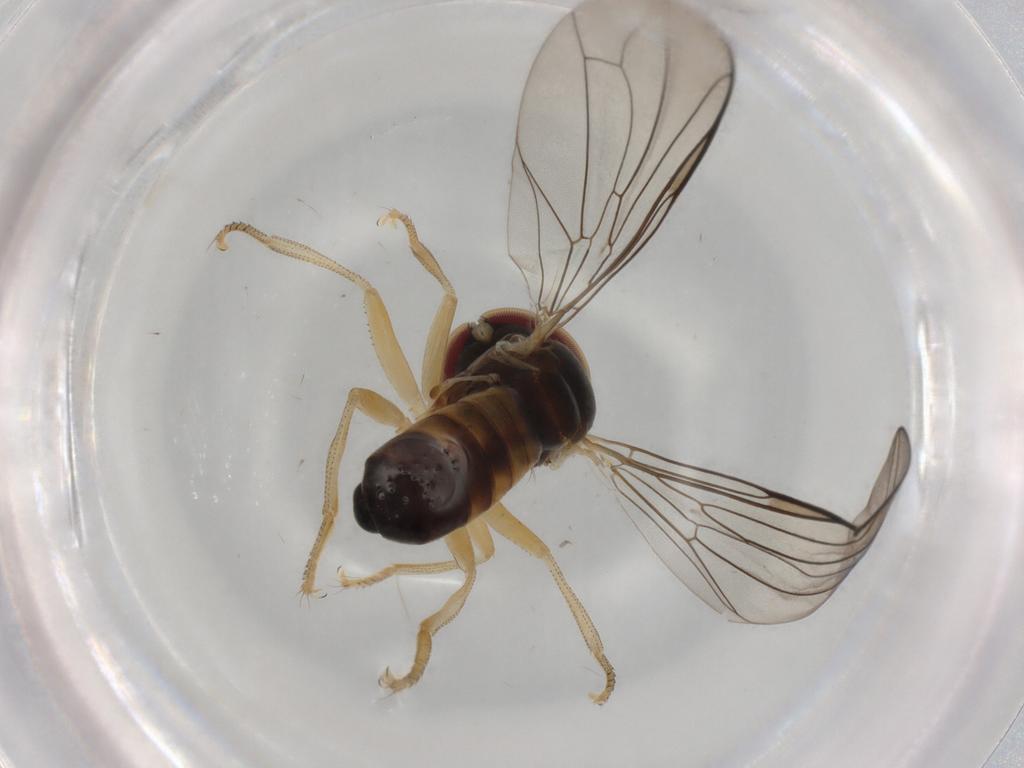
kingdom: Animalia
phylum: Arthropoda
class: Insecta
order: Diptera
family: Pipunculidae
